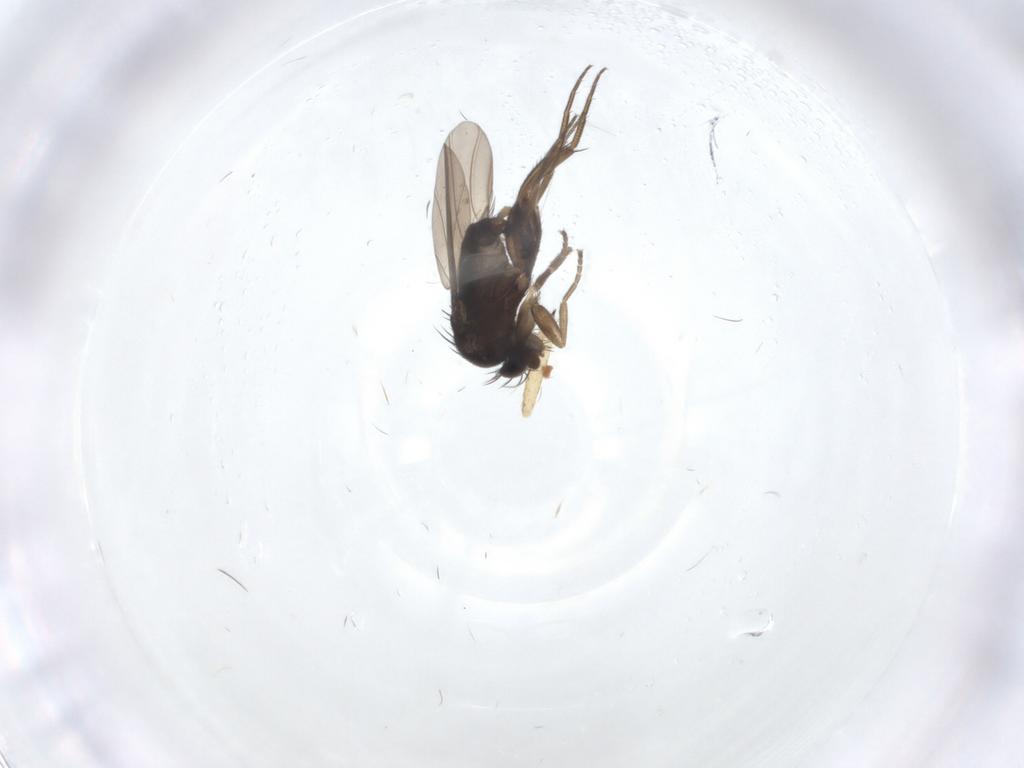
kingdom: Animalia
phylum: Arthropoda
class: Insecta
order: Diptera
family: Phoridae
